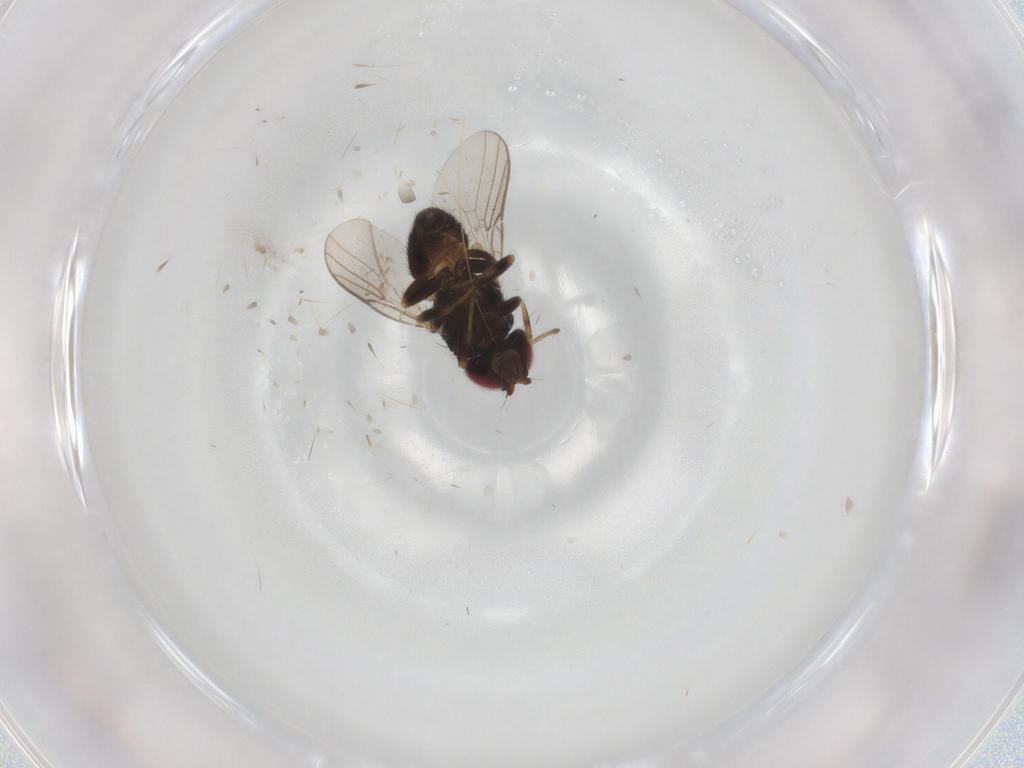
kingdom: Animalia
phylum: Arthropoda
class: Insecta
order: Diptera
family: Chloropidae
